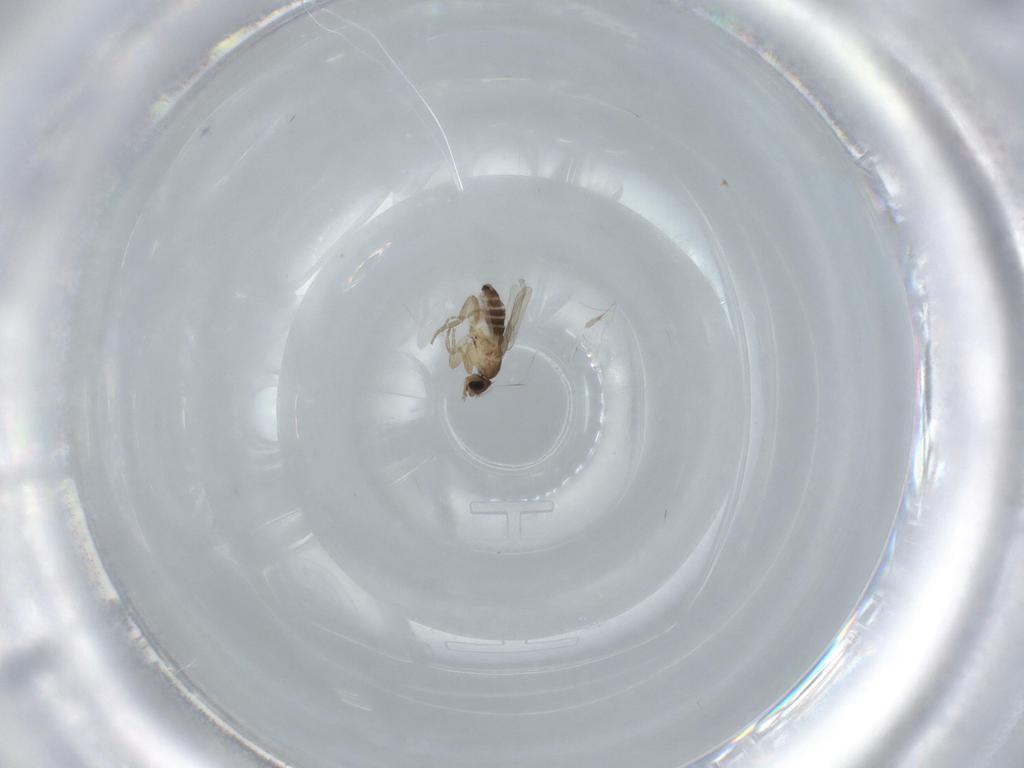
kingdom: Animalia
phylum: Arthropoda
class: Insecta
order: Diptera
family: Phoridae
